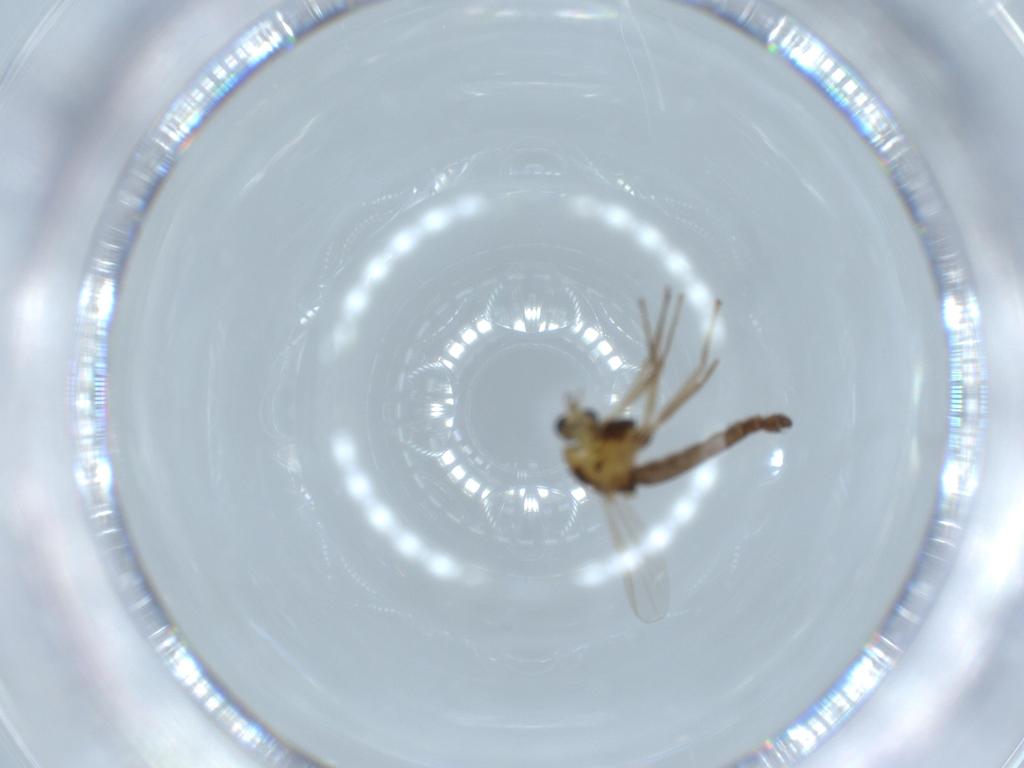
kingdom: Animalia
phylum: Arthropoda
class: Insecta
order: Diptera
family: Chironomidae
